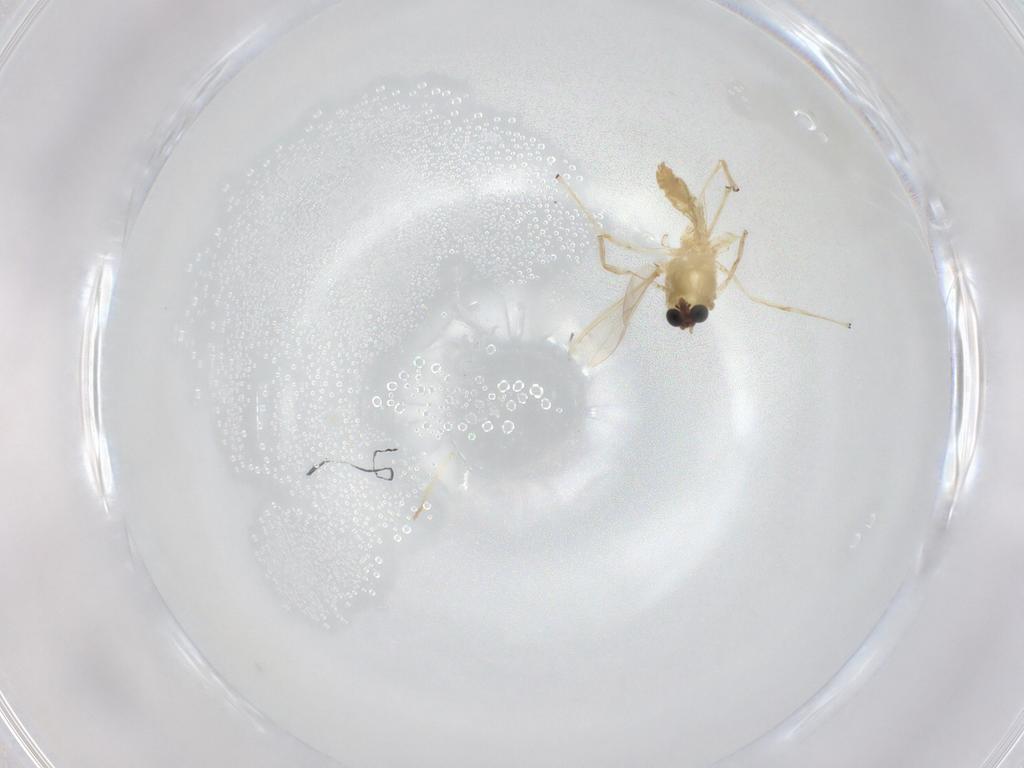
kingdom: Animalia
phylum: Arthropoda
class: Insecta
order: Diptera
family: Chironomidae
